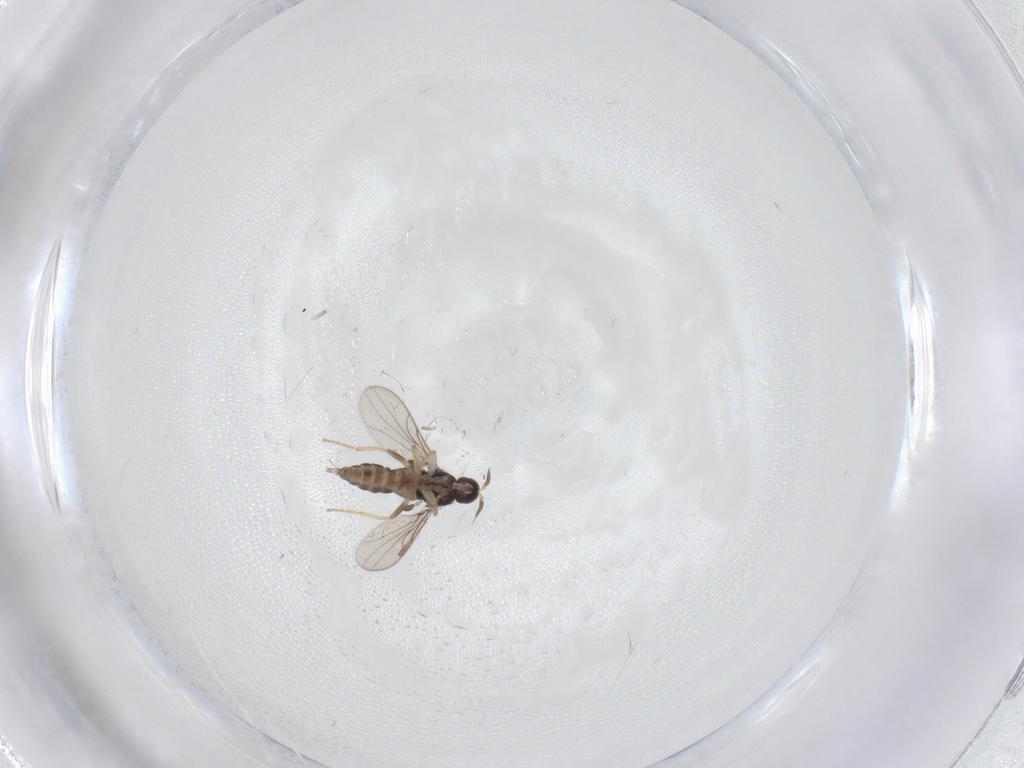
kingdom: Animalia
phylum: Arthropoda
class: Insecta
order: Diptera
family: Hybotidae
